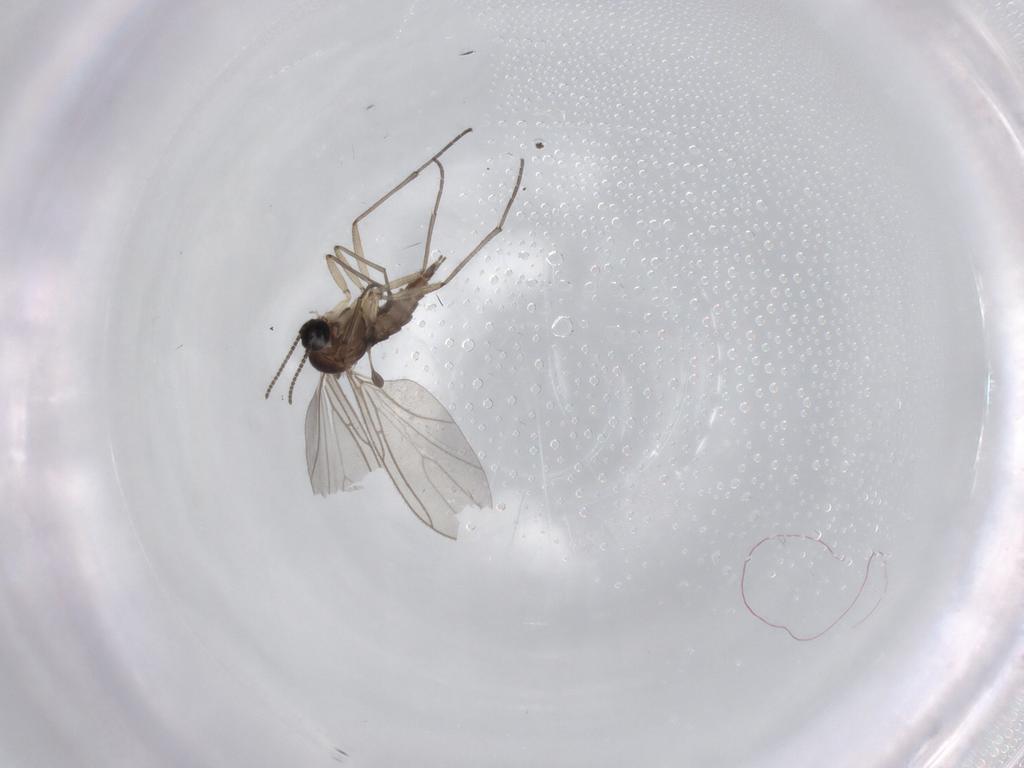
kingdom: Animalia
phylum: Arthropoda
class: Insecta
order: Diptera
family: Sciaridae
